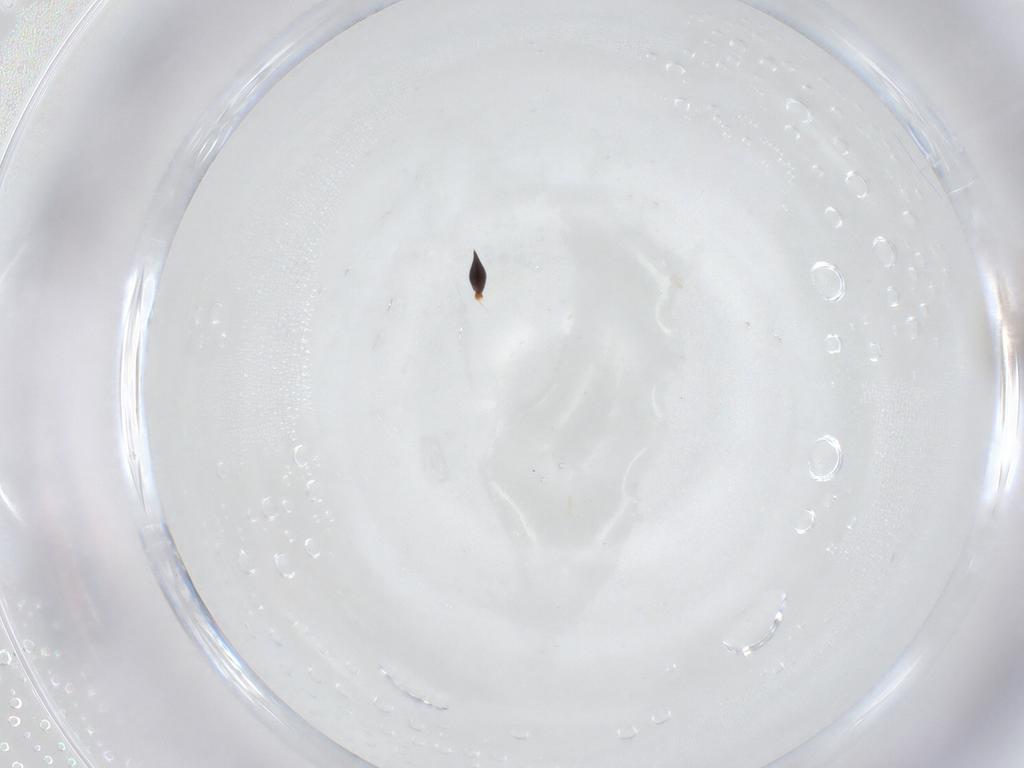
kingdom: Animalia
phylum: Arthropoda
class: Insecta
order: Hymenoptera
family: Platygastridae
